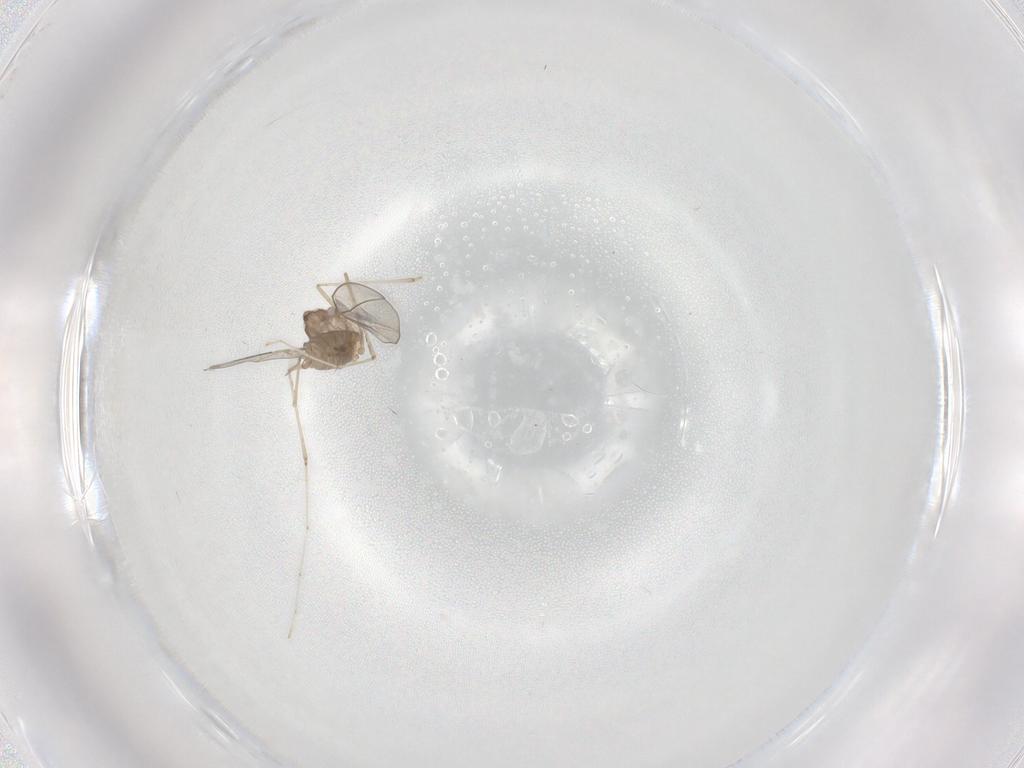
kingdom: Animalia
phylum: Arthropoda
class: Insecta
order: Diptera
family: Cecidomyiidae
